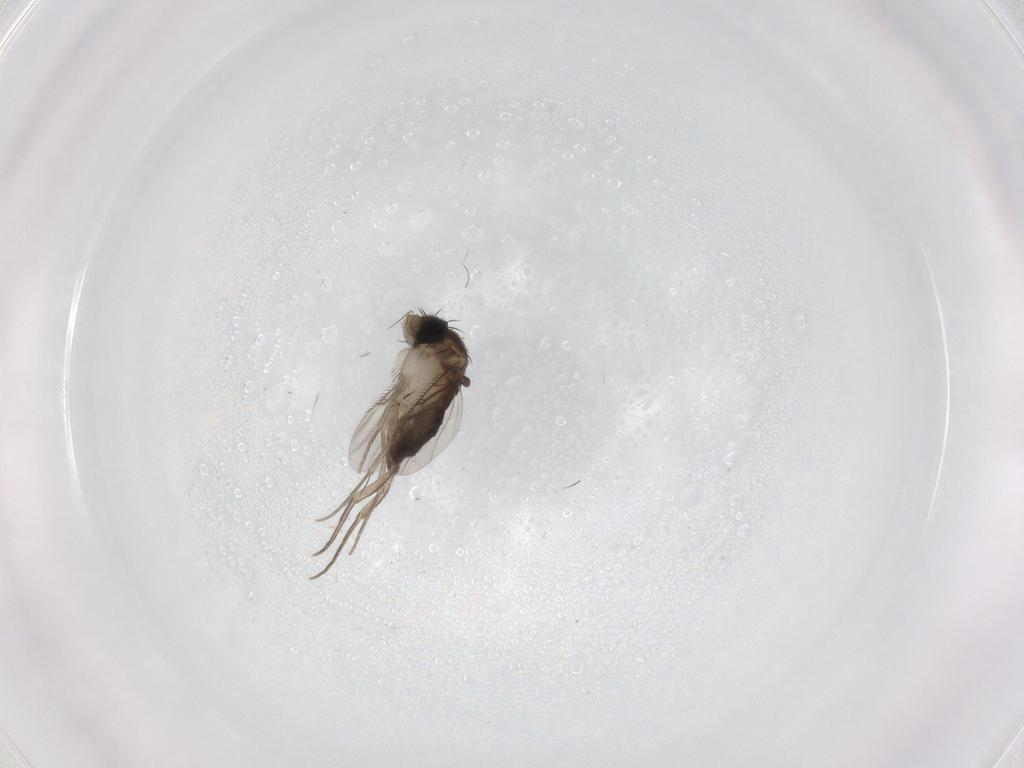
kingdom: Animalia
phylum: Arthropoda
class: Insecta
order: Diptera
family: Phoridae
